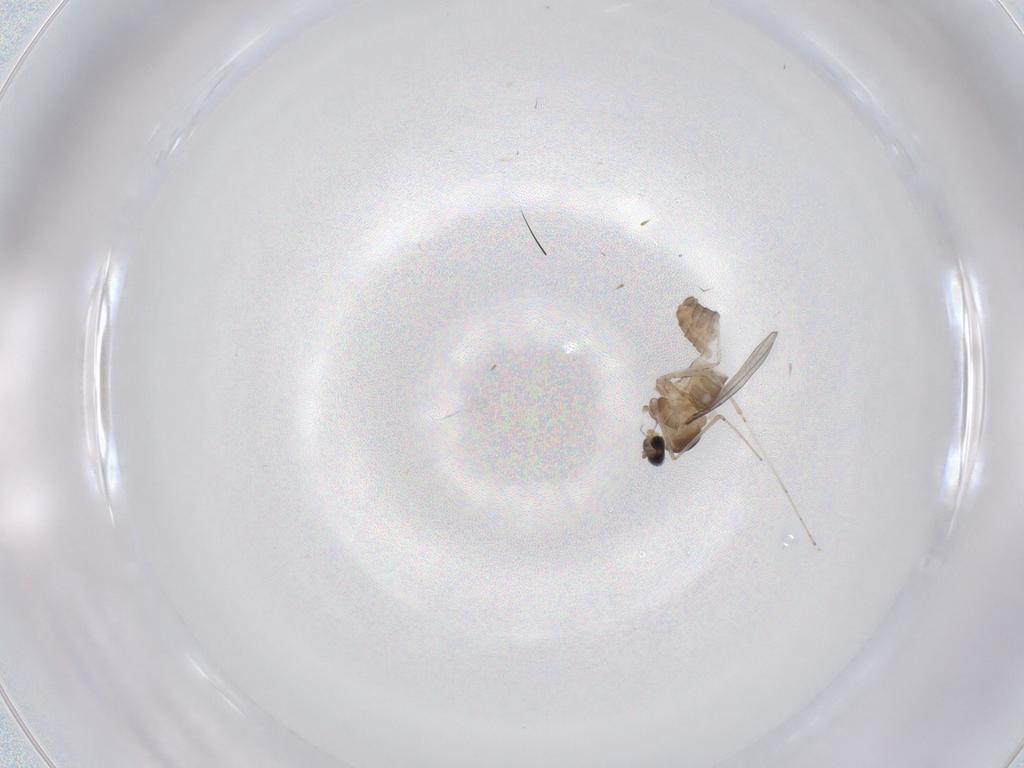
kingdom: Animalia
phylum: Arthropoda
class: Insecta
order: Diptera
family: Cecidomyiidae
